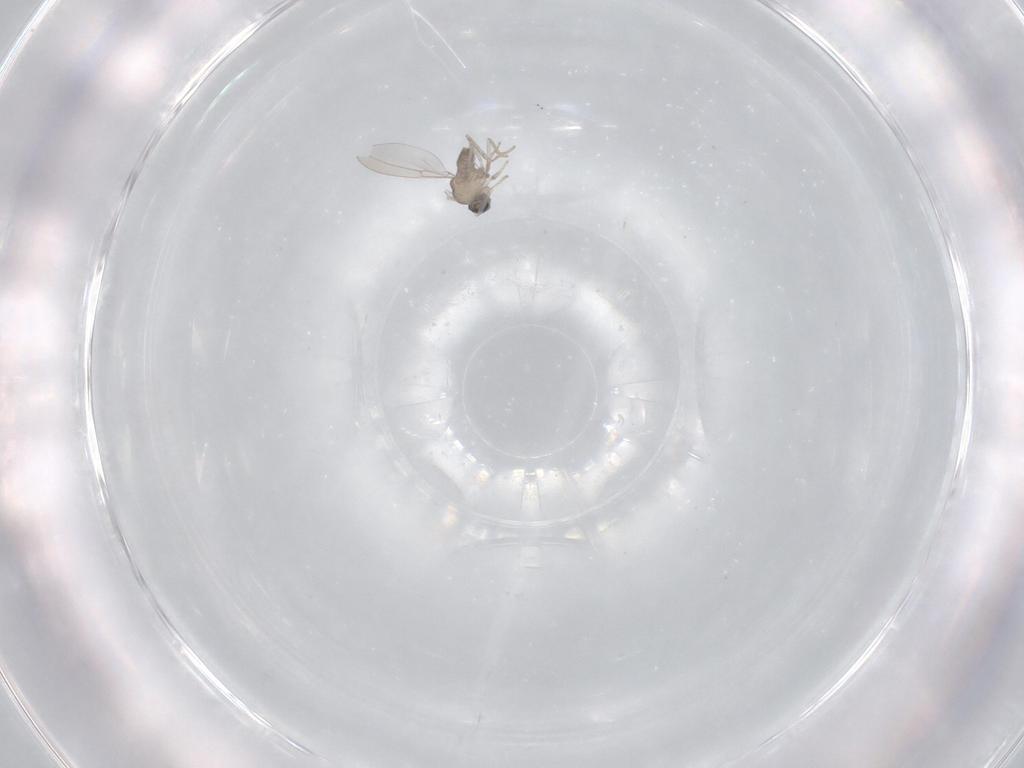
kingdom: Animalia
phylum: Arthropoda
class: Insecta
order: Diptera
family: Cecidomyiidae
